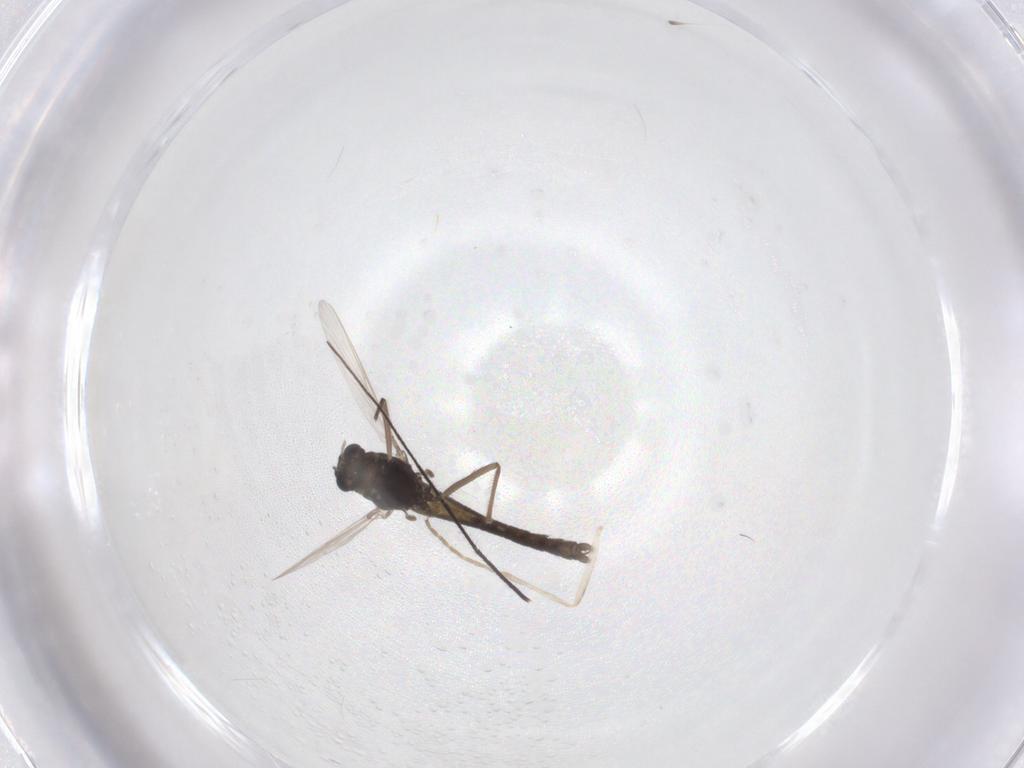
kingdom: Animalia
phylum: Arthropoda
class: Insecta
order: Diptera
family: Chironomidae
